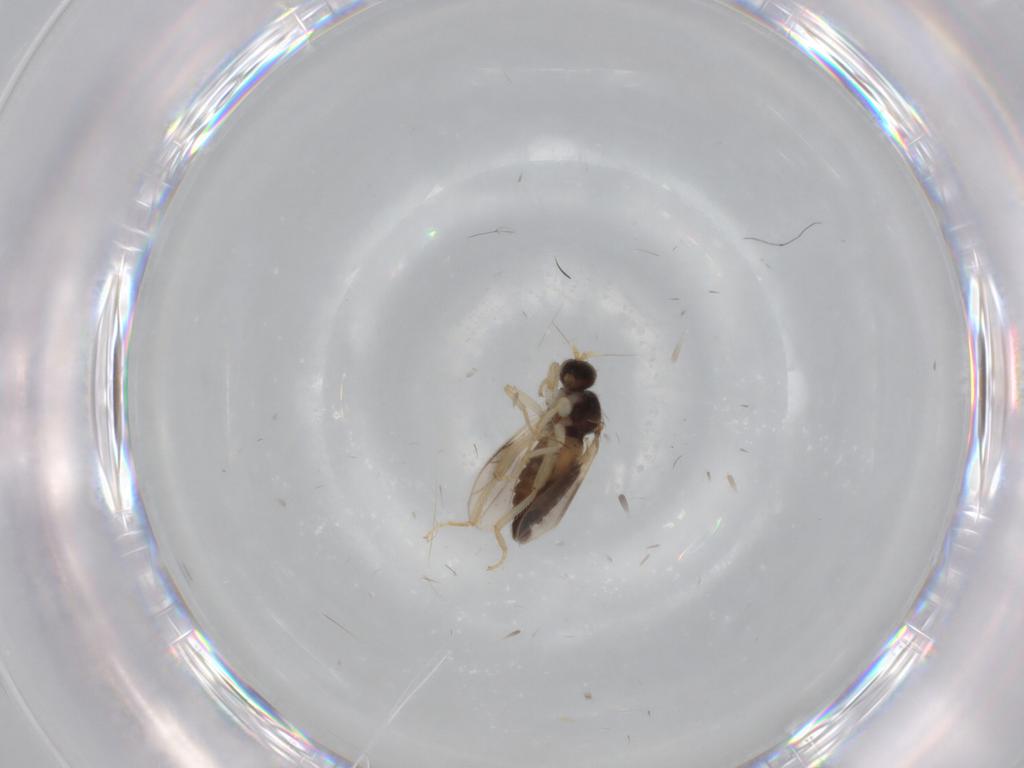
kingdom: Animalia
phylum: Arthropoda
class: Insecta
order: Diptera
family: Hybotidae
